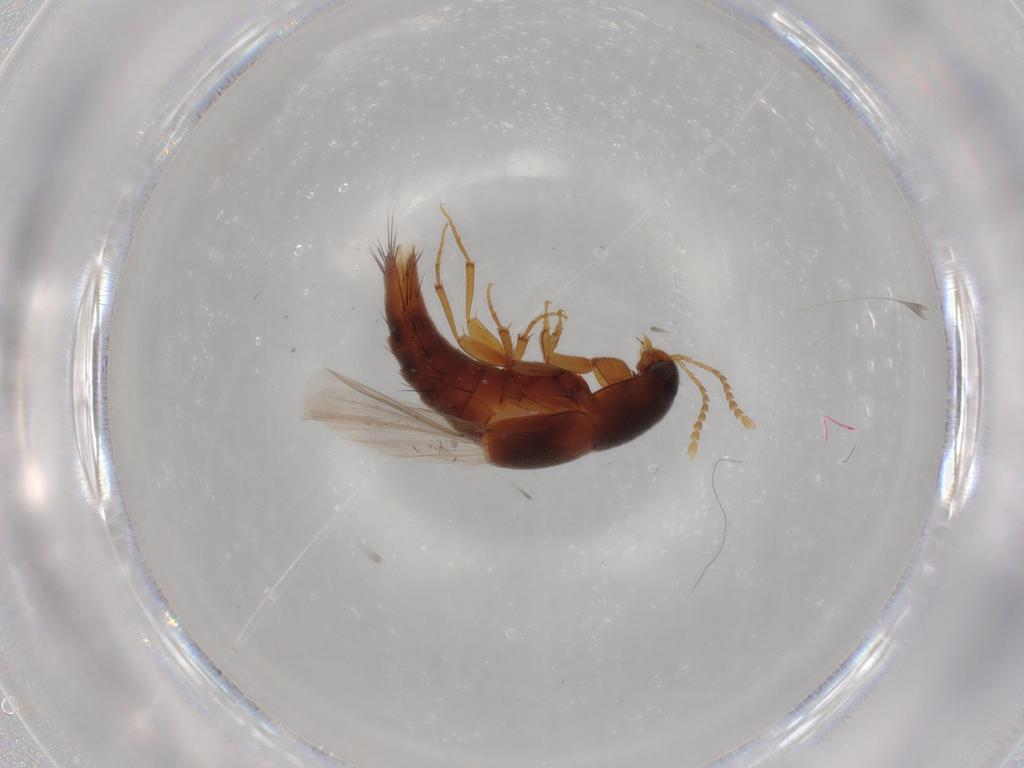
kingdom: Animalia
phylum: Arthropoda
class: Insecta
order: Coleoptera
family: Staphylinidae
